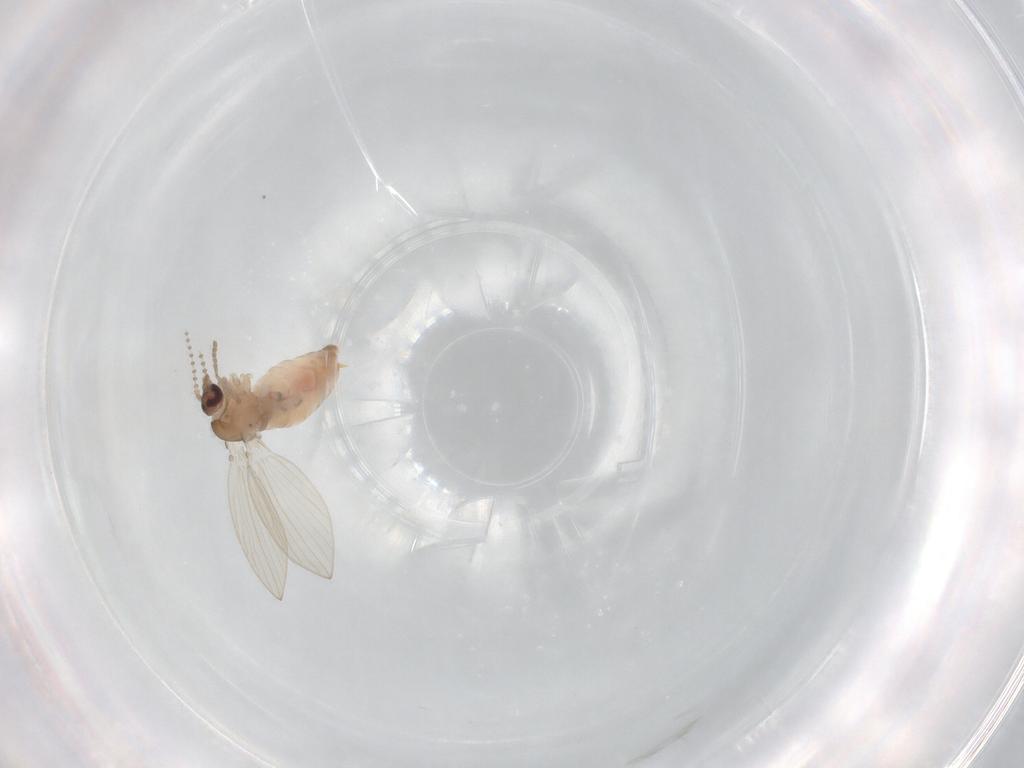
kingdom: Animalia
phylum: Arthropoda
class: Insecta
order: Diptera
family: Psychodidae
